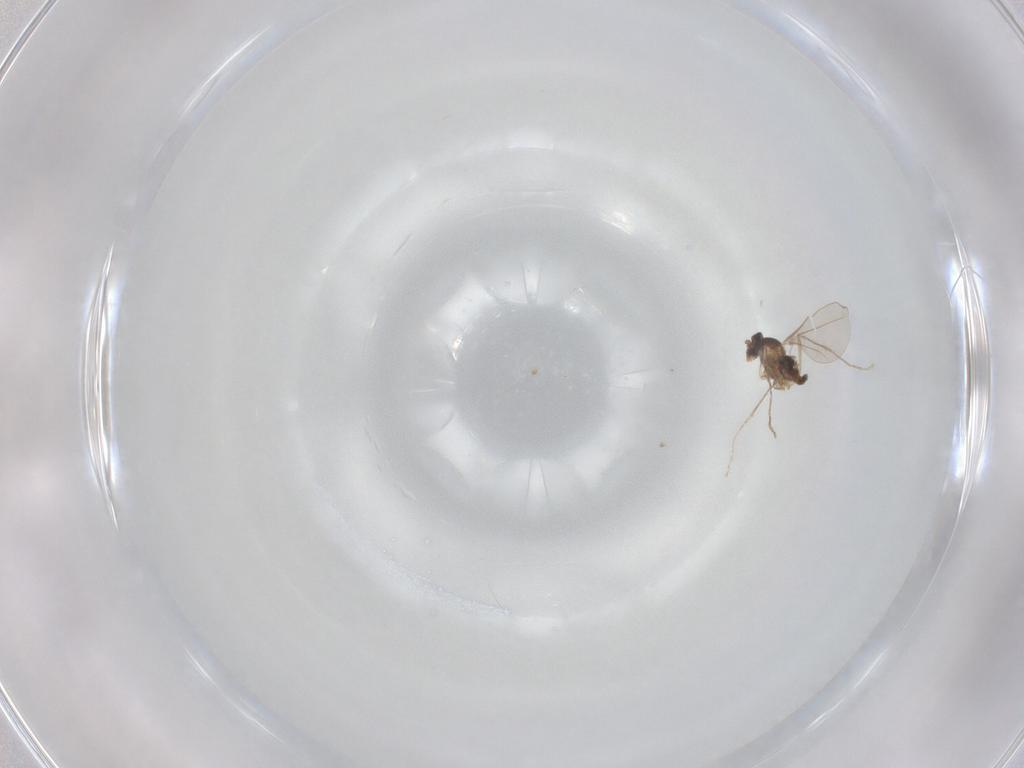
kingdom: Animalia
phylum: Arthropoda
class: Insecta
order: Diptera
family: Cecidomyiidae
